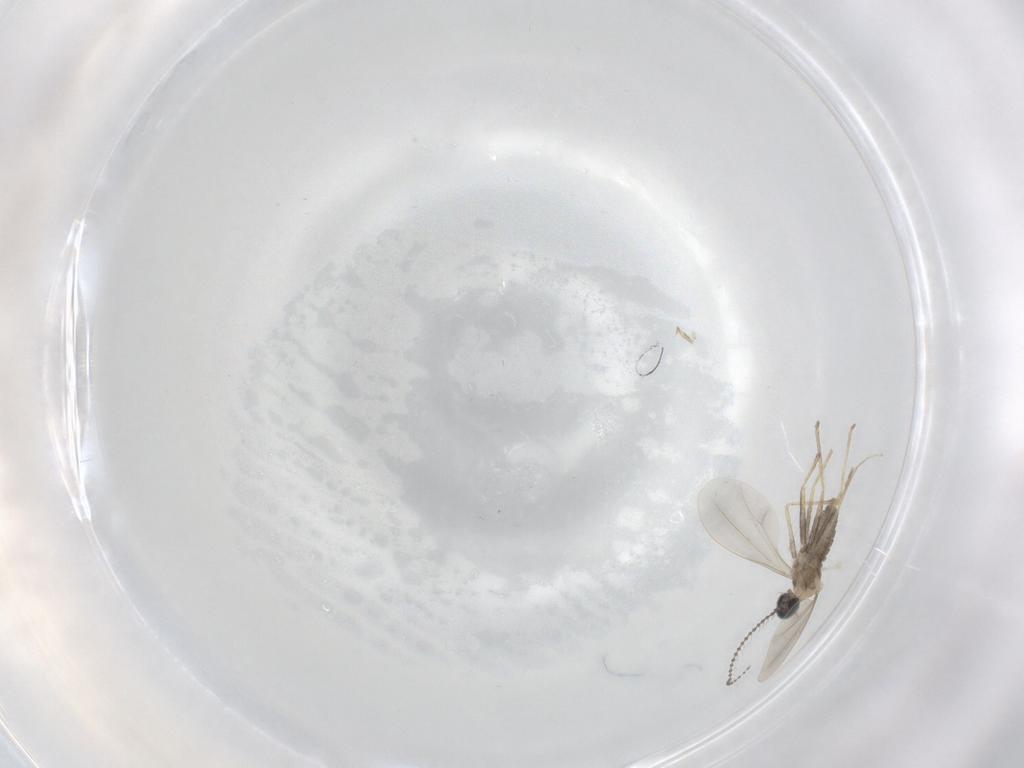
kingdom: Animalia
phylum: Arthropoda
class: Insecta
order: Diptera
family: Cecidomyiidae
